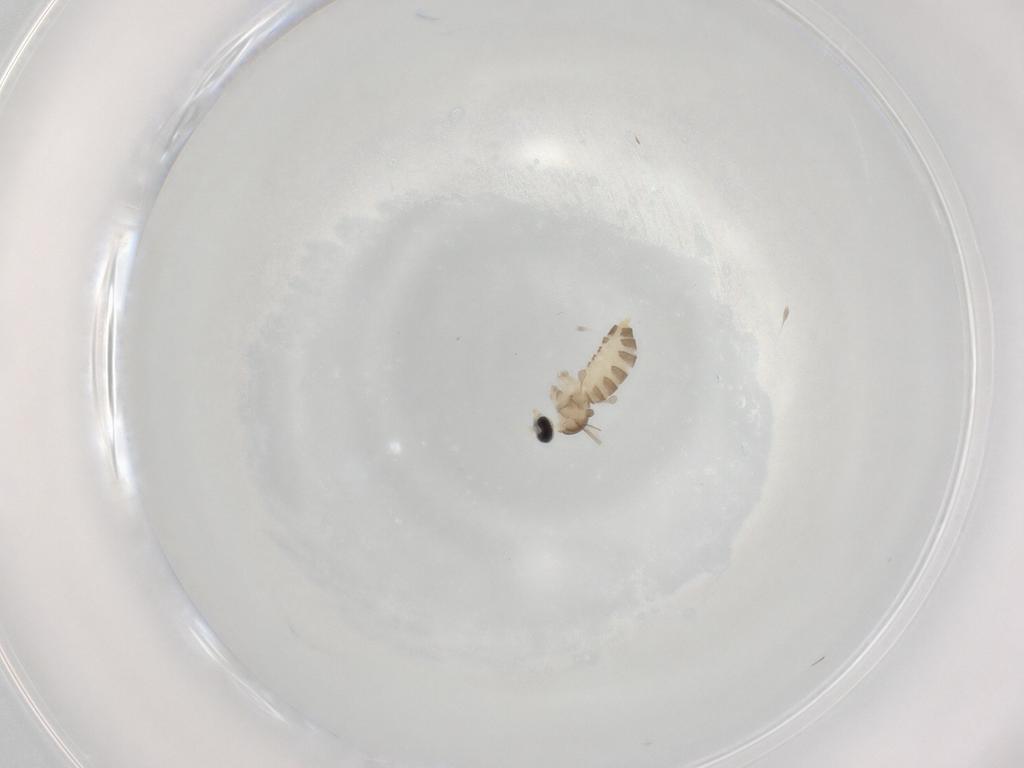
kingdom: Animalia
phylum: Arthropoda
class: Insecta
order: Diptera
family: Cecidomyiidae
